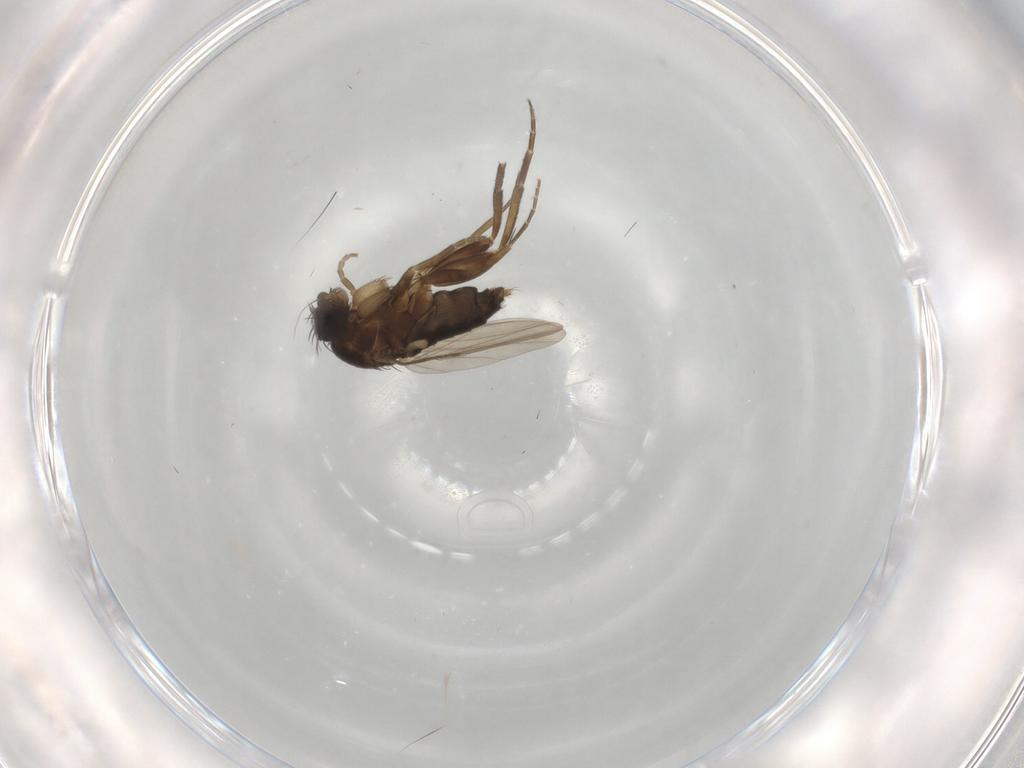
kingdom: Animalia
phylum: Arthropoda
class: Insecta
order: Diptera
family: Phoridae
